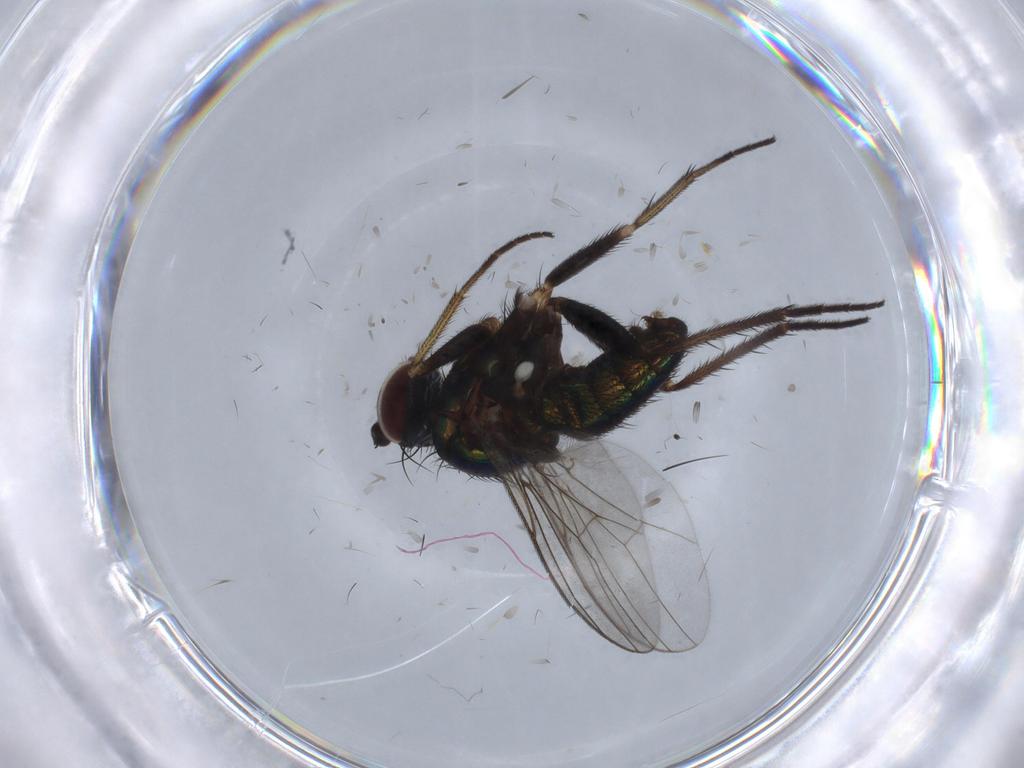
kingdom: Animalia
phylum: Arthropoda
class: Insecta
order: Diptera
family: Dolichopodidae
